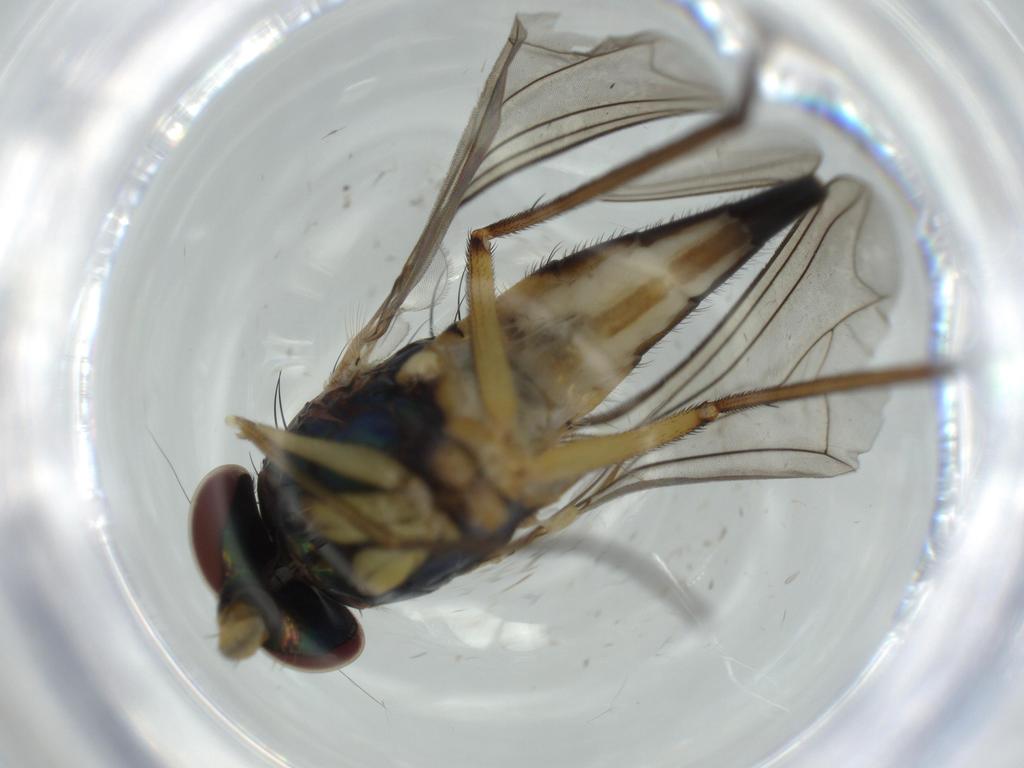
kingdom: Animalia
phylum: Arthropoda
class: Insecta
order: Diptera
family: Dolichopodidae
